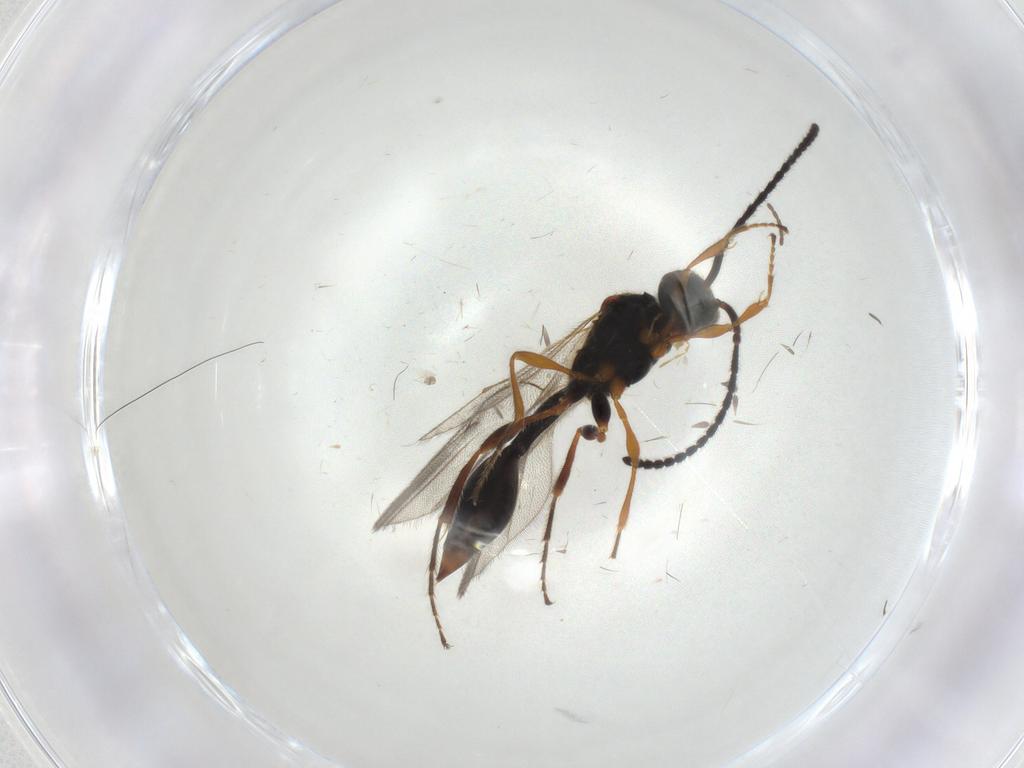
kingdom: Animalia
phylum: Arthropoda
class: Insecta
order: Hymenoptera
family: Diapriidae
